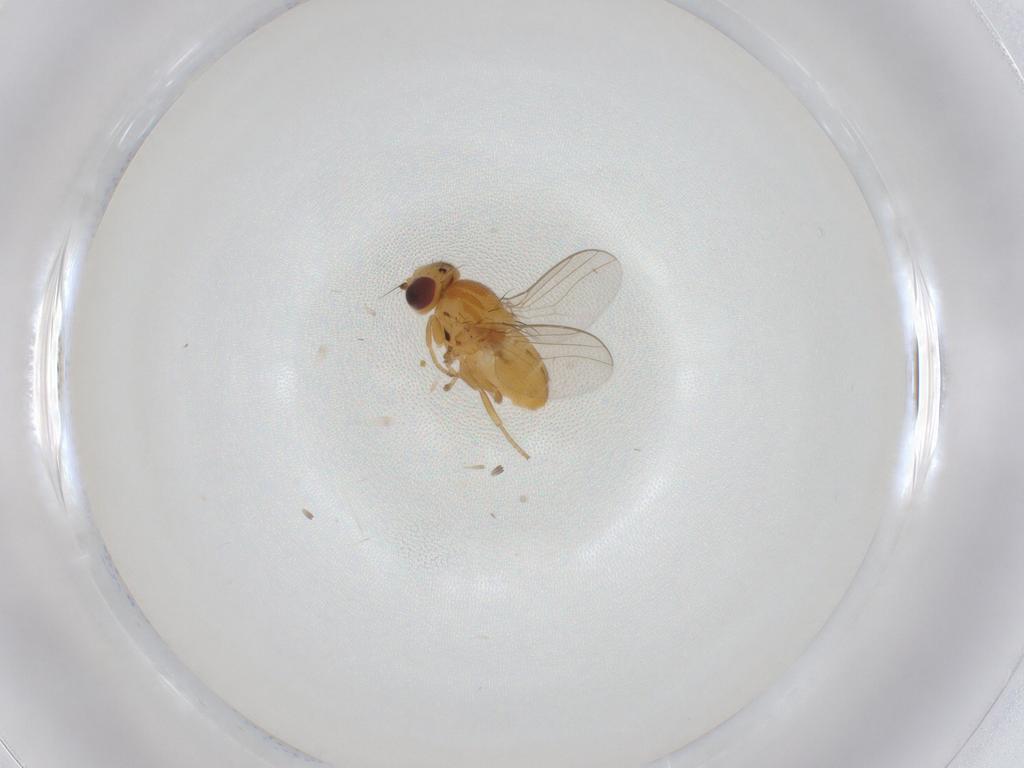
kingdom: Animalia
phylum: Arthropoda
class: Insecta
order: Diptera
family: Chloropidae
